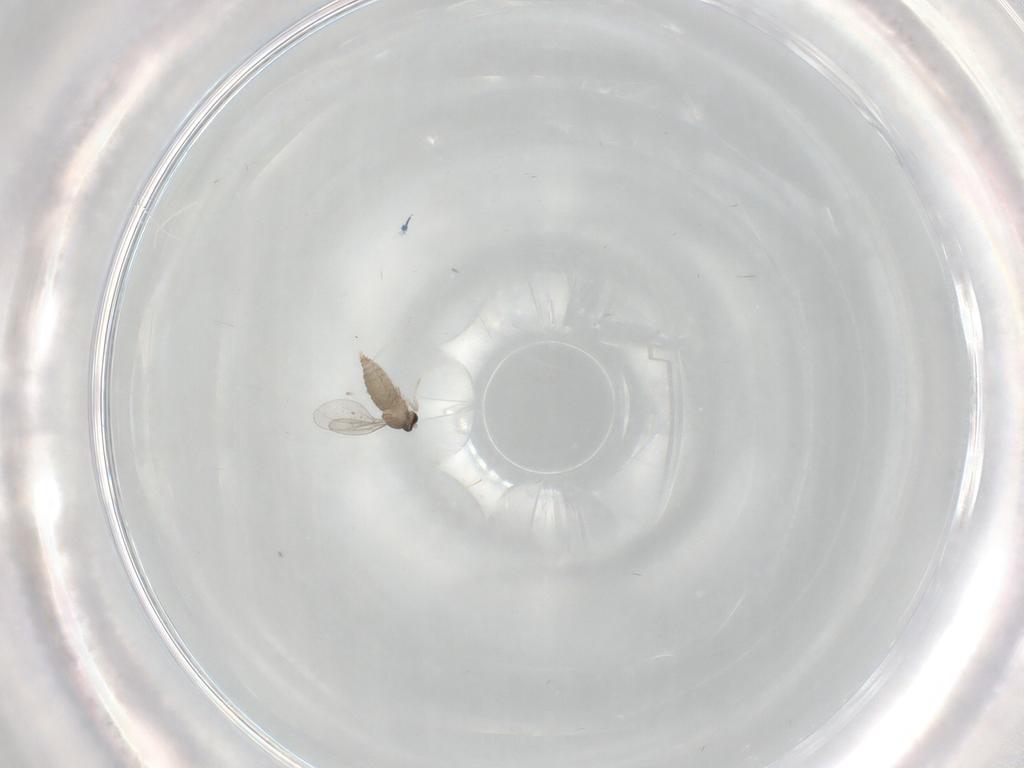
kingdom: Animalia
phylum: Arthropoda
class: Insecta
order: Diptera
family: Cecidomyiidae
